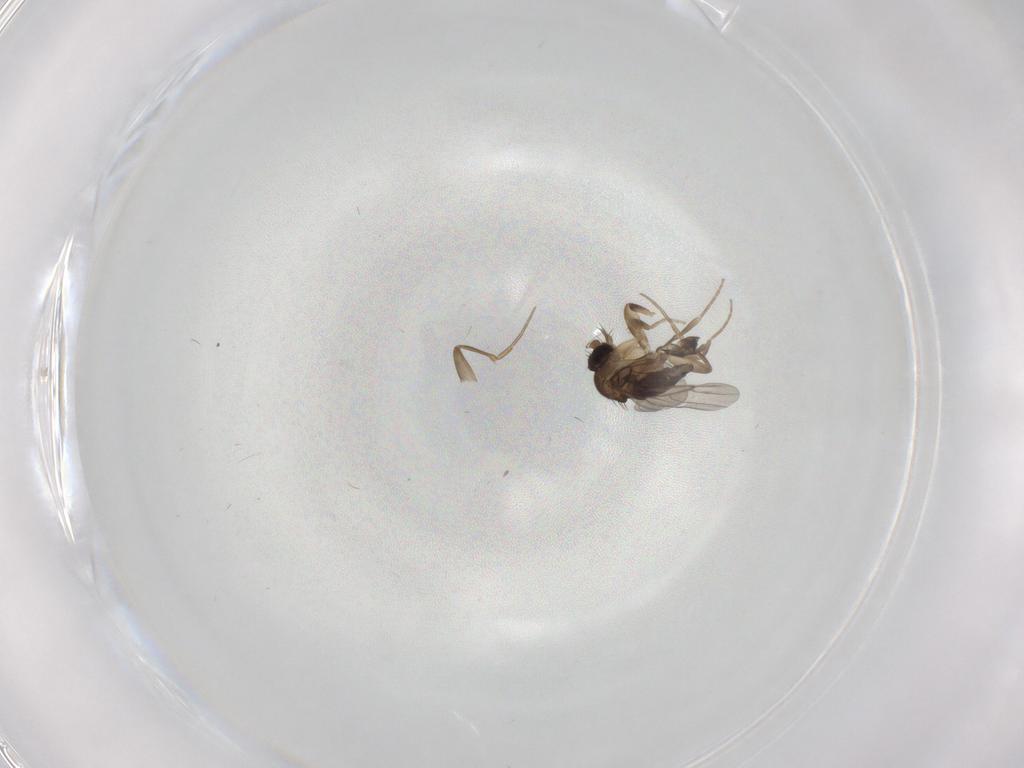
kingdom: Animalia
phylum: Arthropoda
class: Insecta
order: Diptera
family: Phoridae
